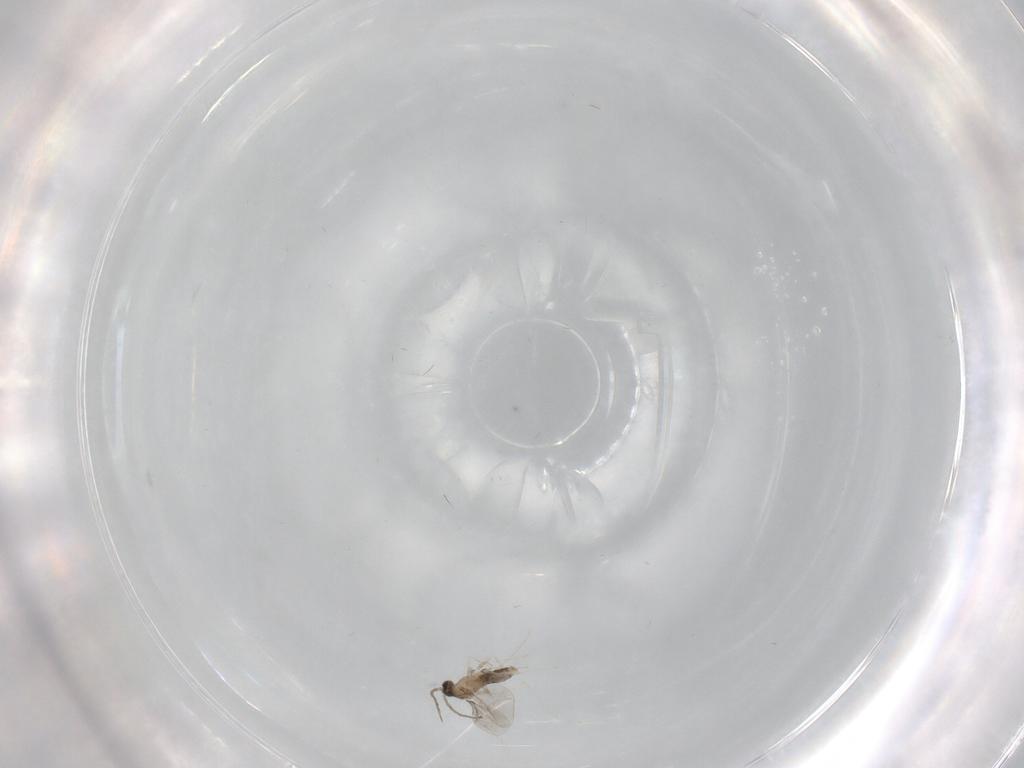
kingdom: Animalia
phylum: Arthropoda
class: Insecta
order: Diptera
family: Cecidomyiidae
